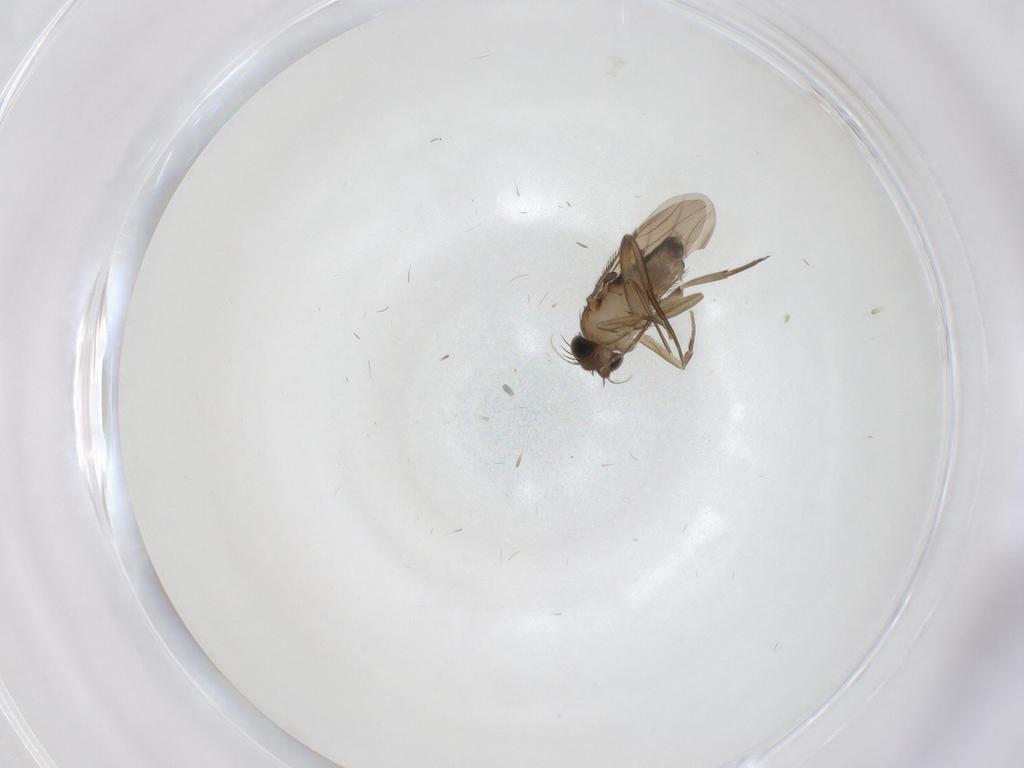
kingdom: Animalia
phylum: Arthropoda
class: Insecta
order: Diptera
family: Phoridae
